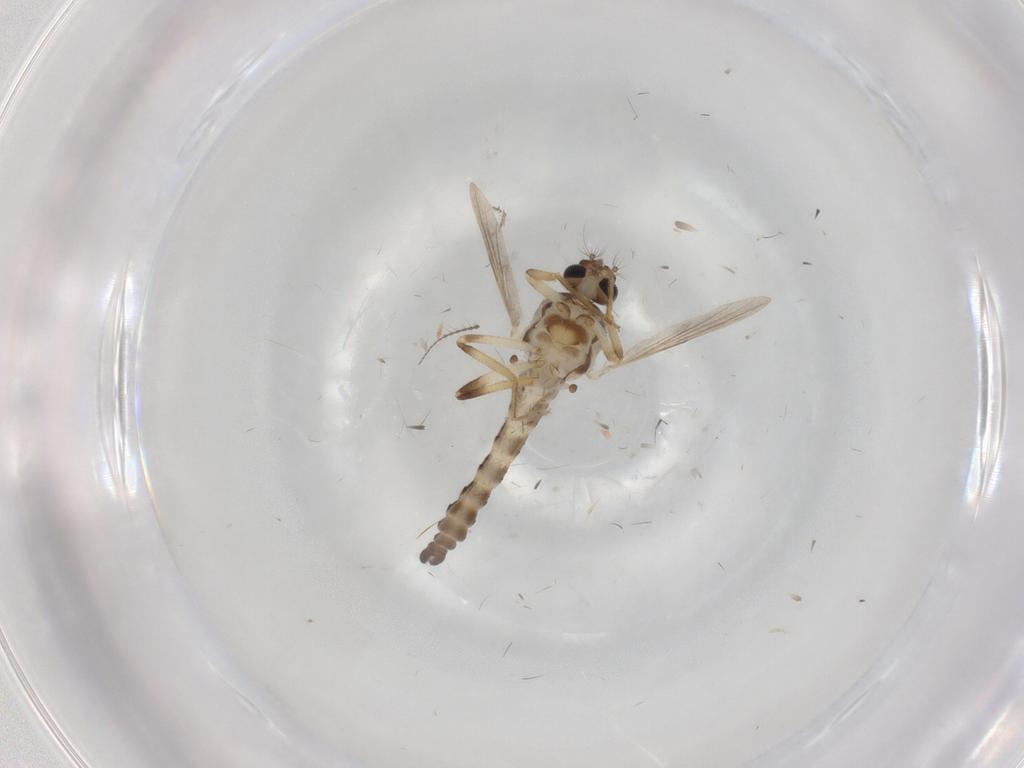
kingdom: Animalia
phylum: Arthropoda
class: Insecta
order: Diptera
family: Ceratopogonidae
